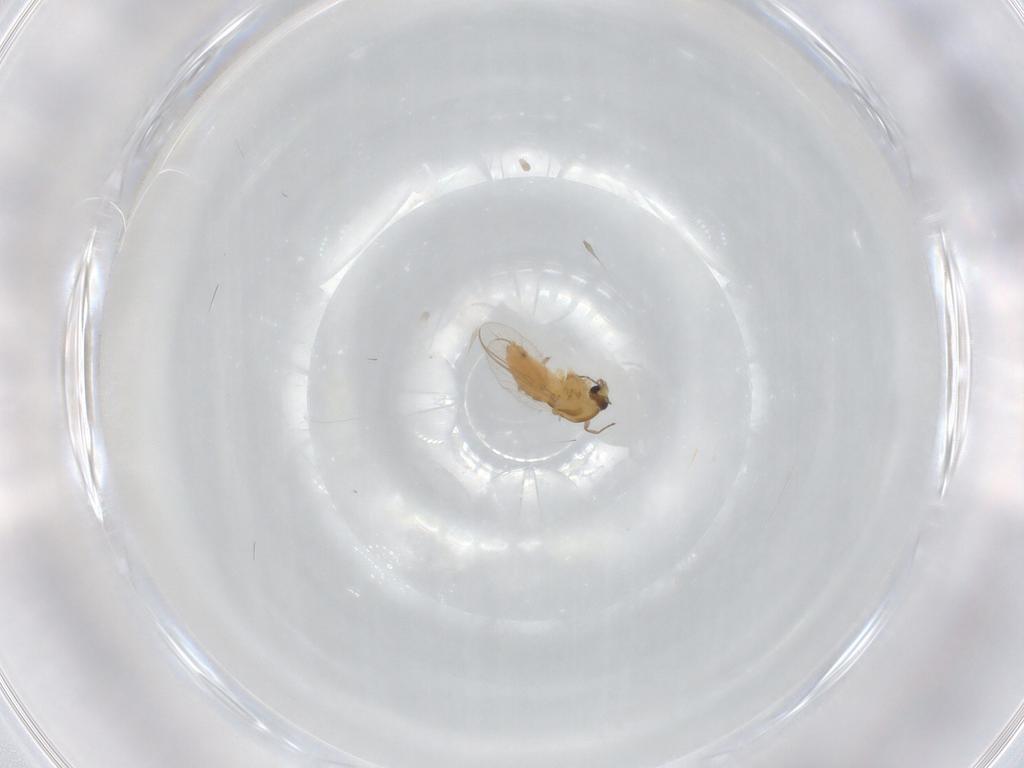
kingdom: Animalia
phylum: Arthropoda
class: Insecta
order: Diptera
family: Chironomidae
